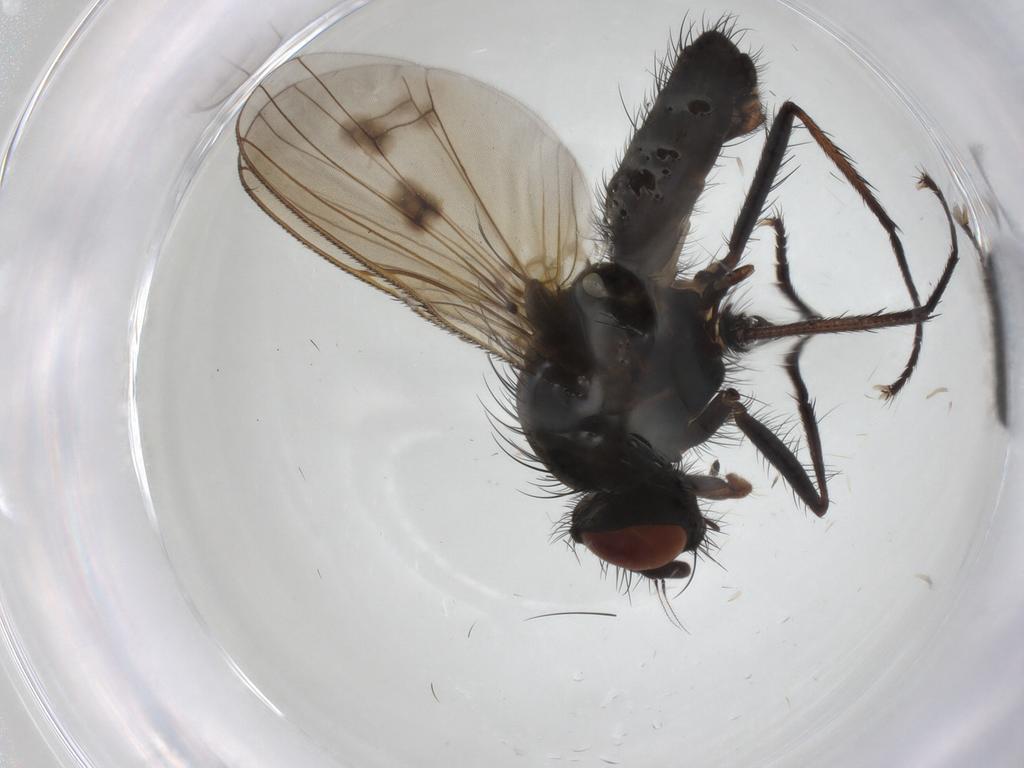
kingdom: Animalia
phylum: Arthropoda
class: Insecta
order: Diptera
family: Anthomyiidae
